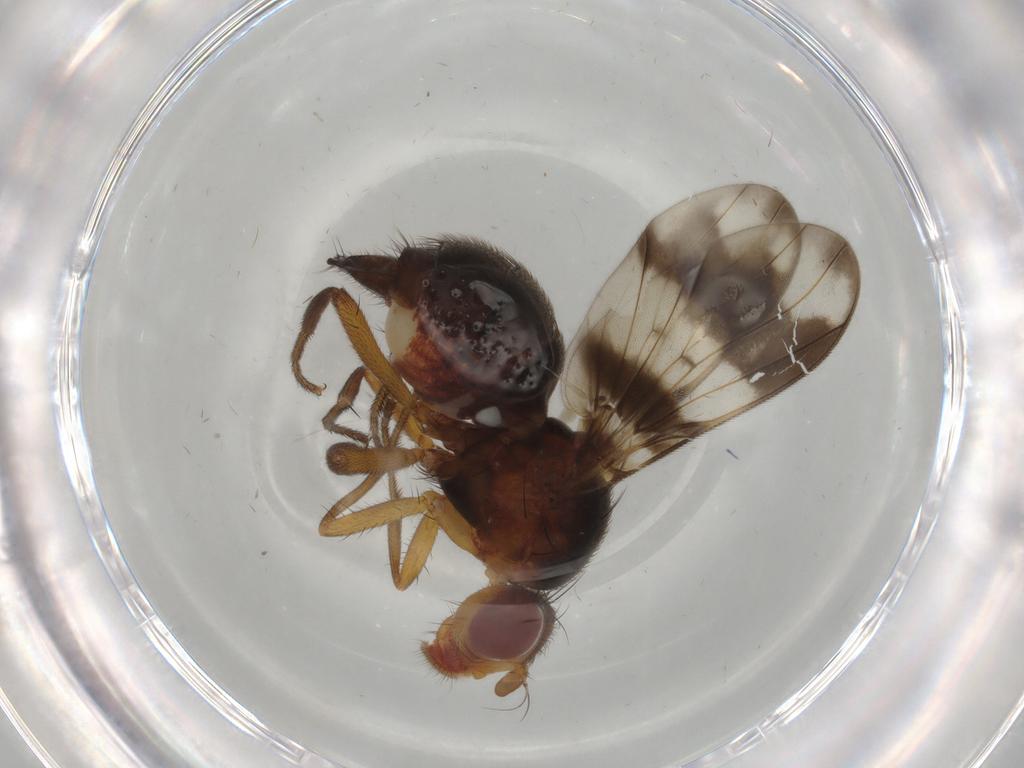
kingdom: Animalia
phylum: Arthropoda
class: Insecta
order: Diptera
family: Richardiidae
